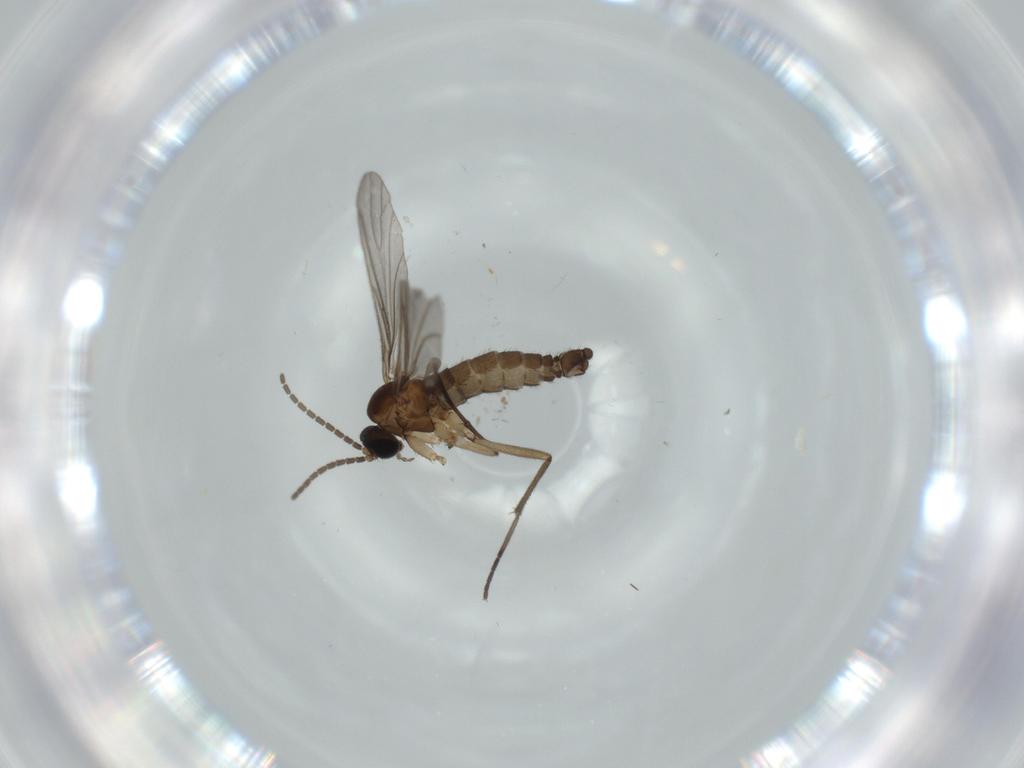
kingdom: Animalia
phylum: Arthropoda
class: Insecta
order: Diptera
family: Sciaridae
